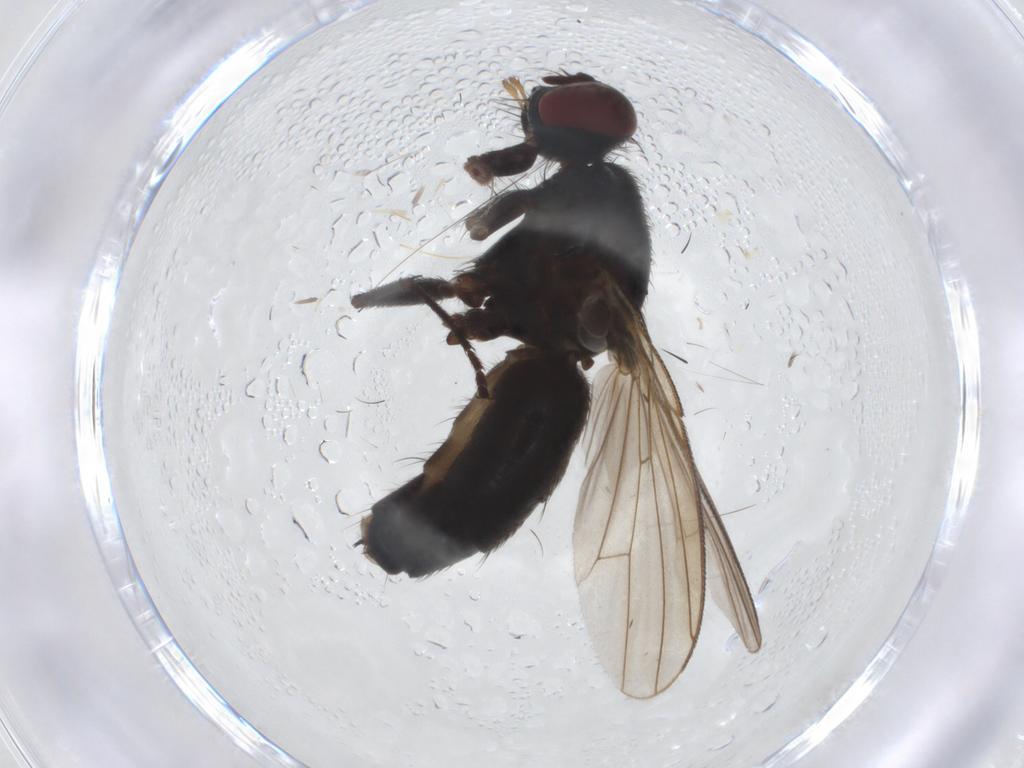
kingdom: Animalia
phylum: Arthropoda
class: Insecta
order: Diptera
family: Muscidae
